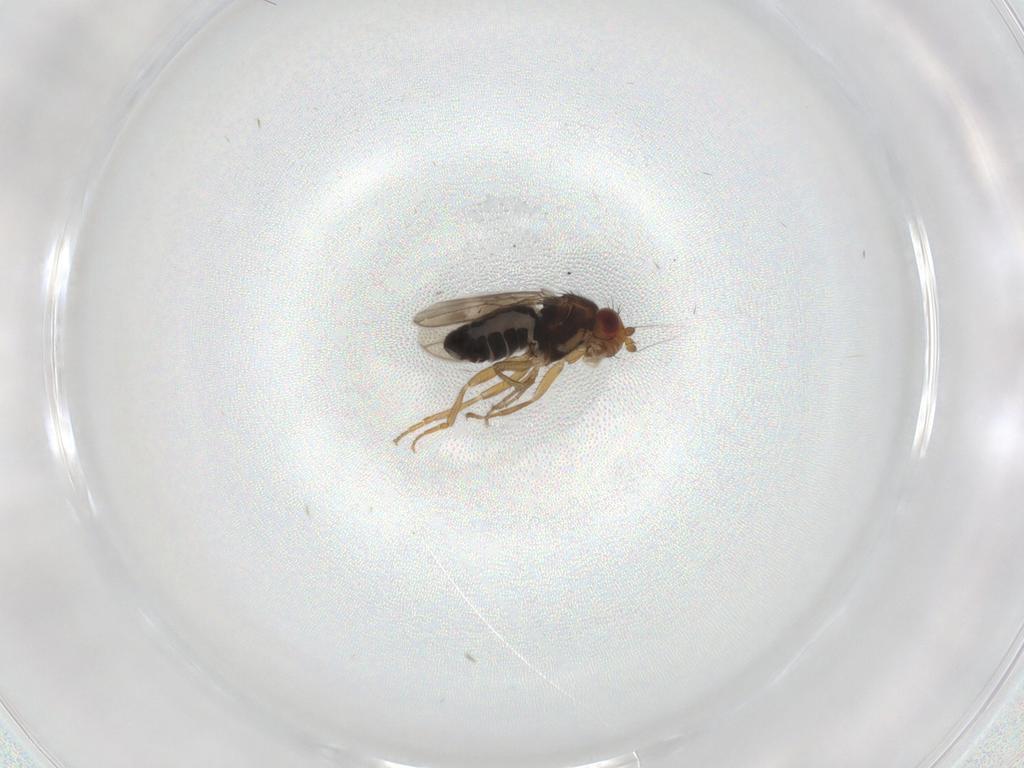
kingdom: Animalia
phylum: Arthropoda
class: Insecta
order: Diptera
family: Sphaeroceridae
